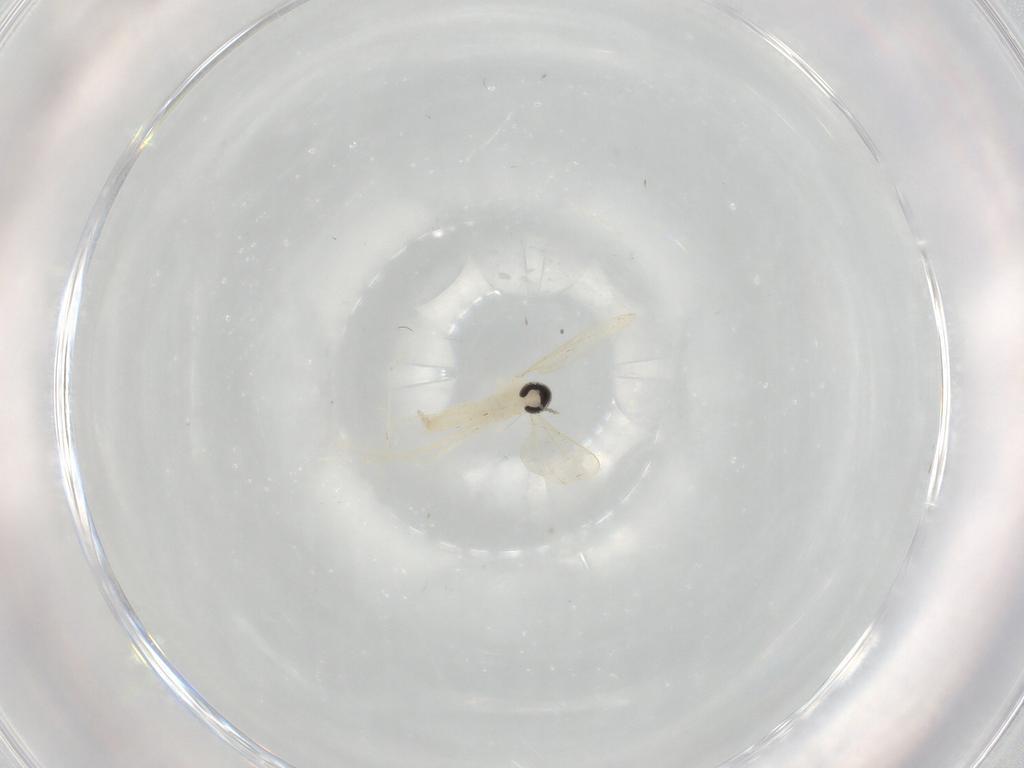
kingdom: Animalia
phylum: Arthropoda
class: Insecta
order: Diptera
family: Cecidomyiidae
